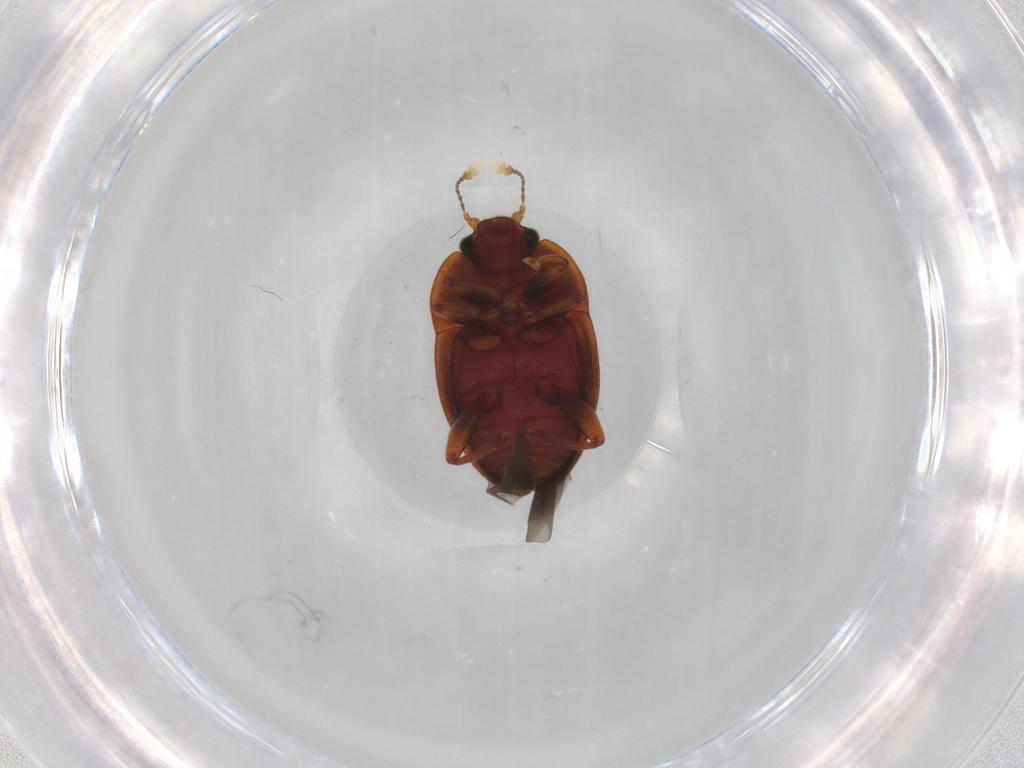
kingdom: Animalia
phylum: Arthropoda
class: Insecta
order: Coleoptera
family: Nitidulidae
